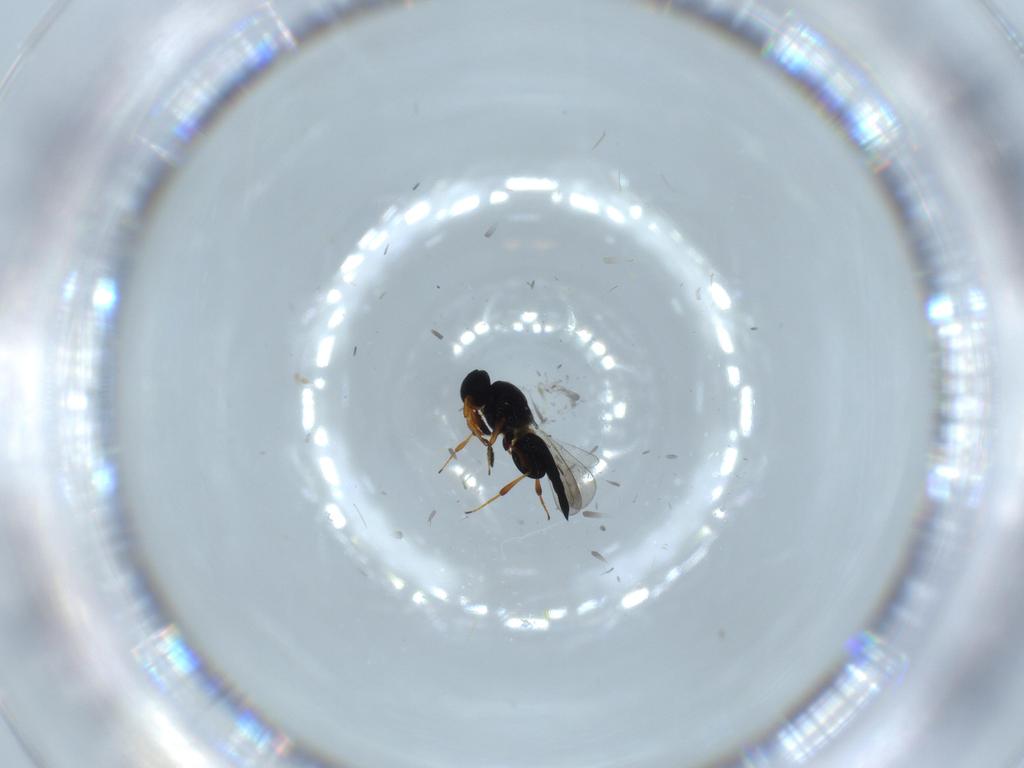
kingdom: Animalia
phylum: Arthropoda
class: Insecta
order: Hymenoptera
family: Platygastridae
